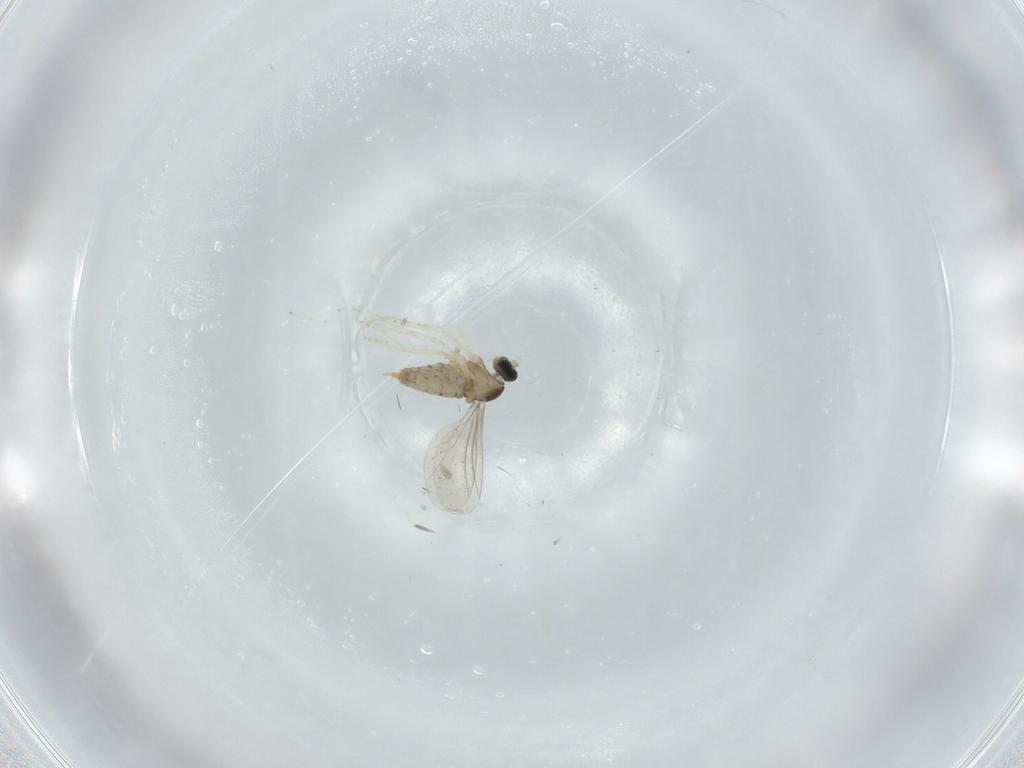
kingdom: Animalia
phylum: Arthropoda
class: Insecta
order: Diptera
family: Cecidomyiidae
